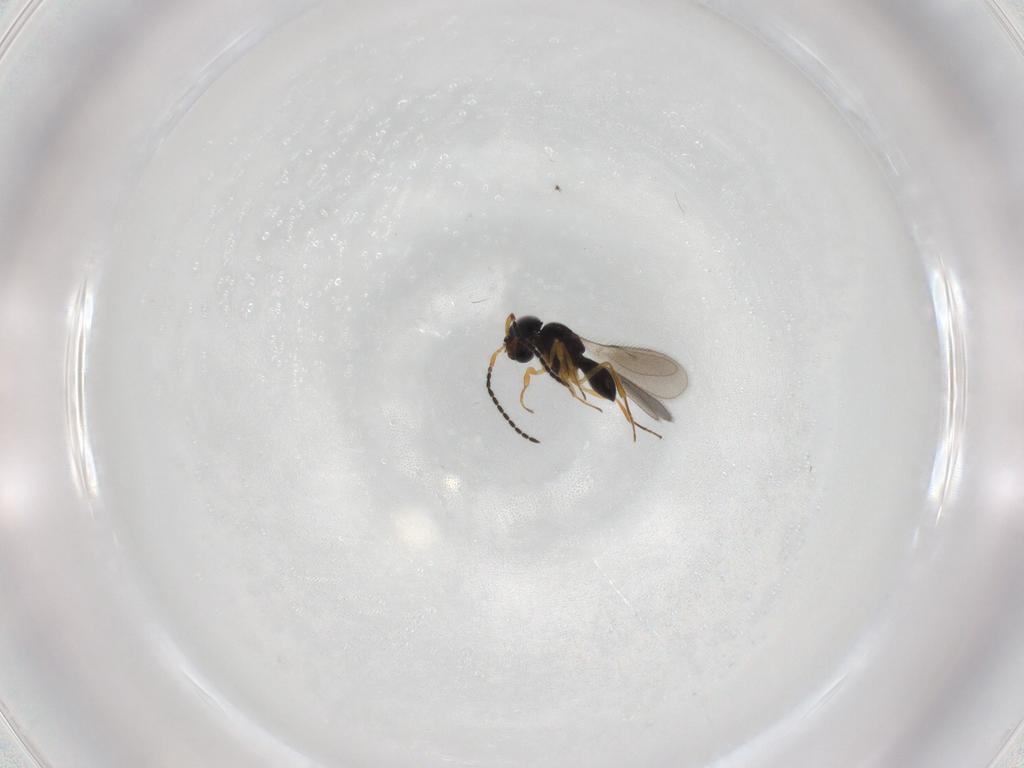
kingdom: Animalia
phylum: Arthropoda
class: Insecta
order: Hymenoptera
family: Scelionidae
